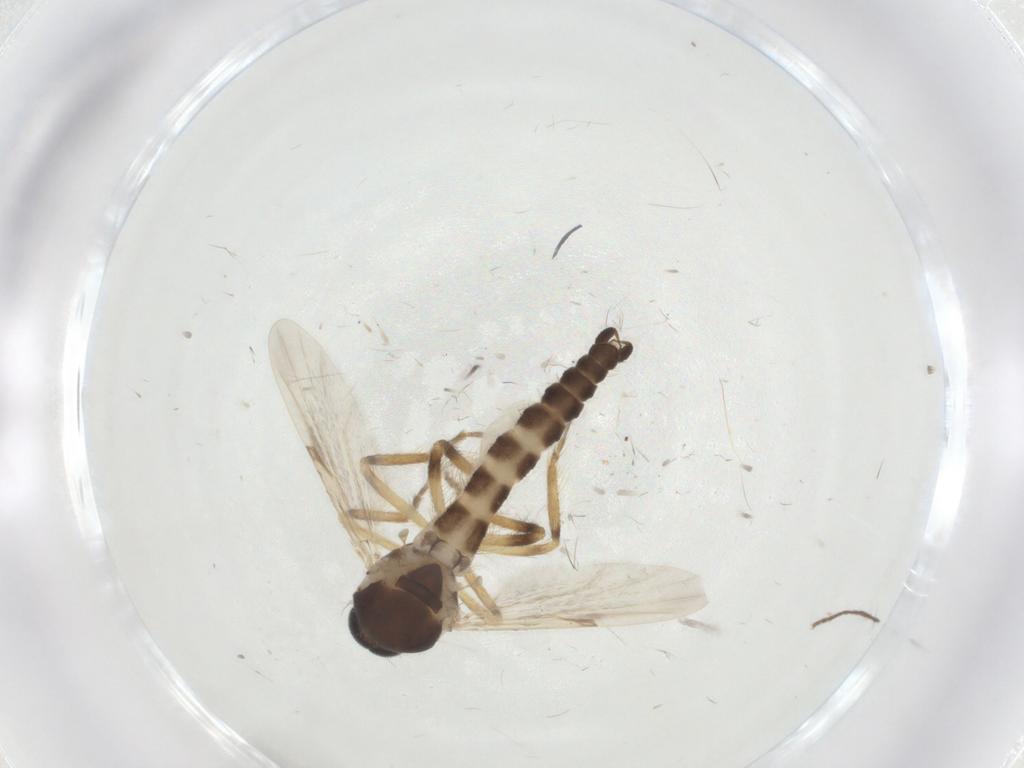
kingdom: Animalia
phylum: Arthropoda
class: Insecta
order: Diptera
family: Ceratopogonidae
